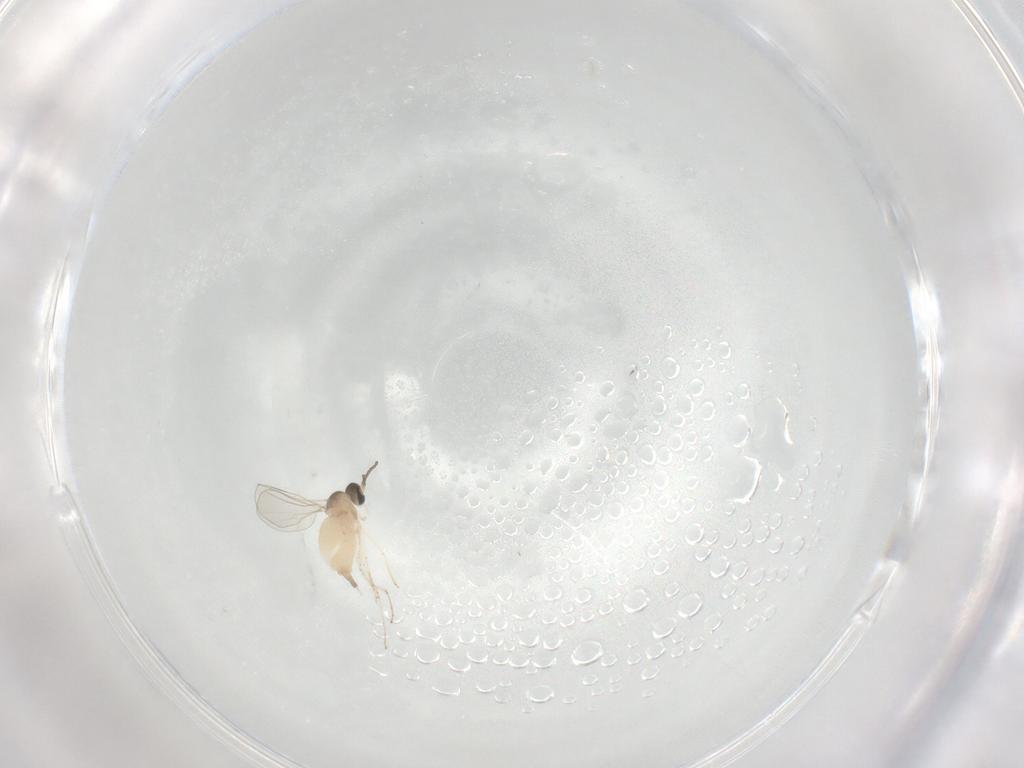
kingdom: Animalia
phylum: Arthropoda
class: Insecta
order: Diptera
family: Cecidomyiidae
